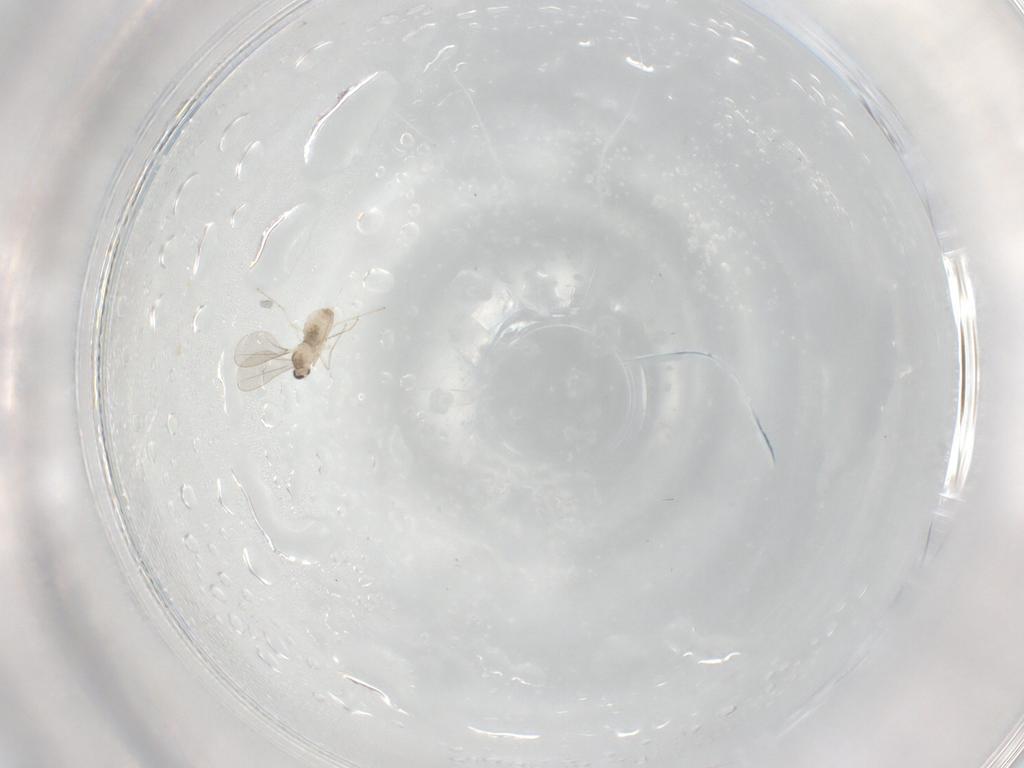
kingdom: Animalia
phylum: Arthropoda
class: Insecta
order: Diptera
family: Cecidomyiidae
